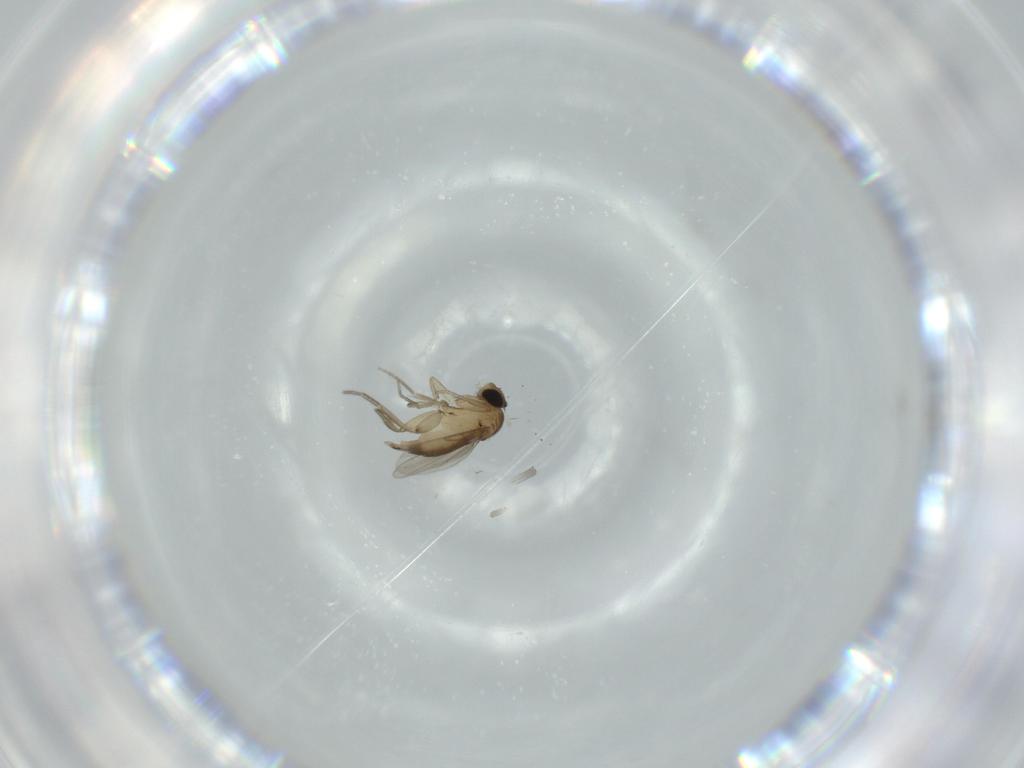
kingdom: Animalia
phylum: Arthropoda
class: Insecta
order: Diptera
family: Phoridae
